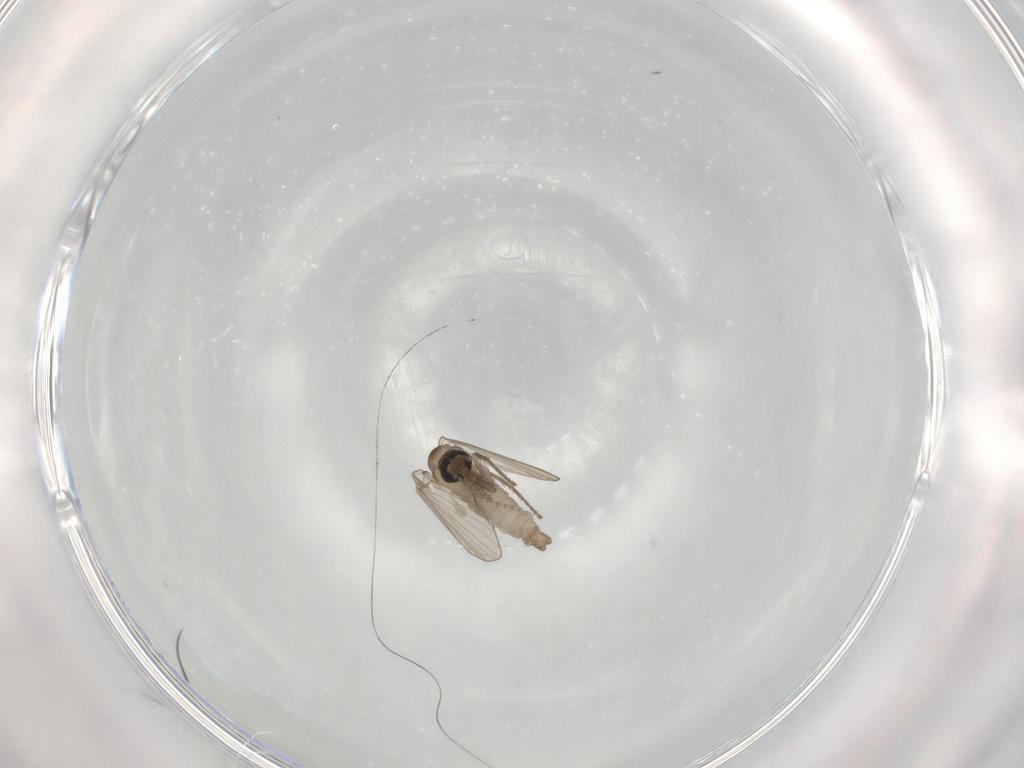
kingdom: Animalia
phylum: Arthropoda
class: Insecta
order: Diptera
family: Psychodidae
